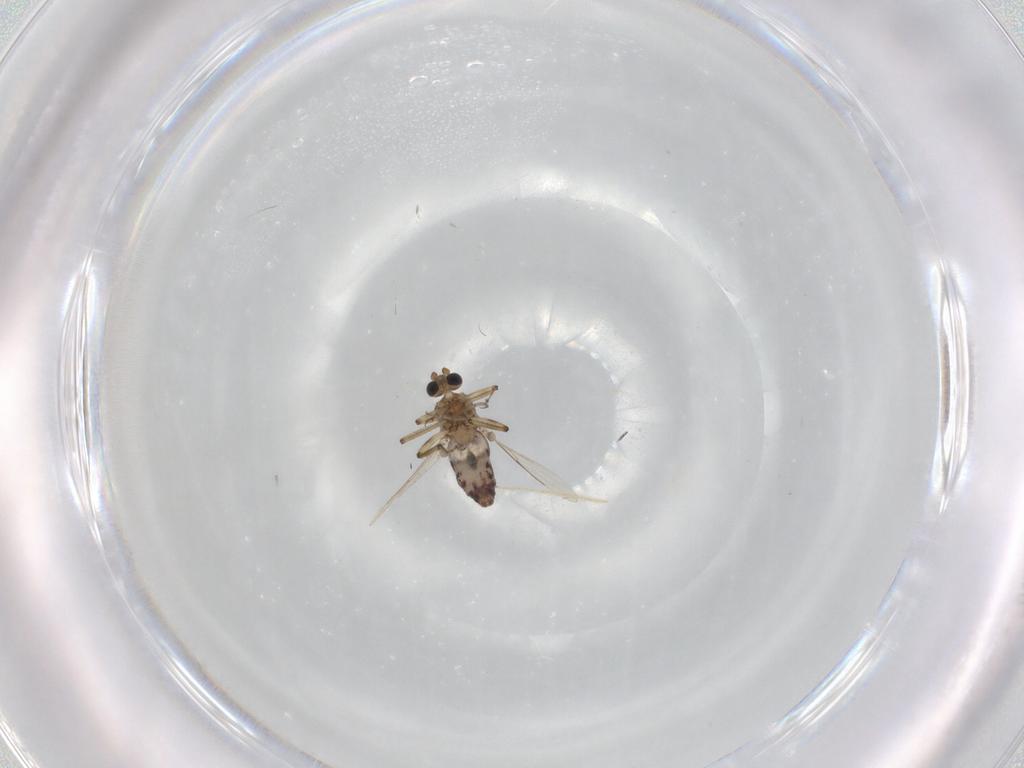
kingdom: Animalia
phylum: Arthropoda
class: Insecta
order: Diptera
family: Ceratopogonidae
